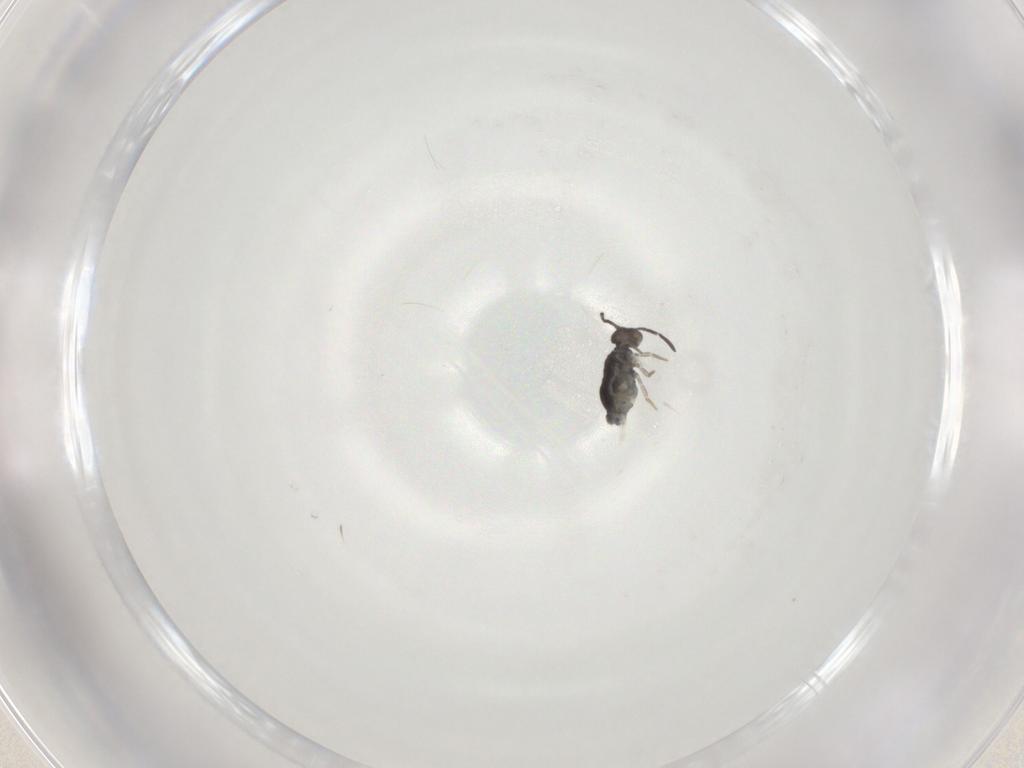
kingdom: Animalia
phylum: Arthropoda
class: Collembola
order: Symphypleona
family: Katiannidae
